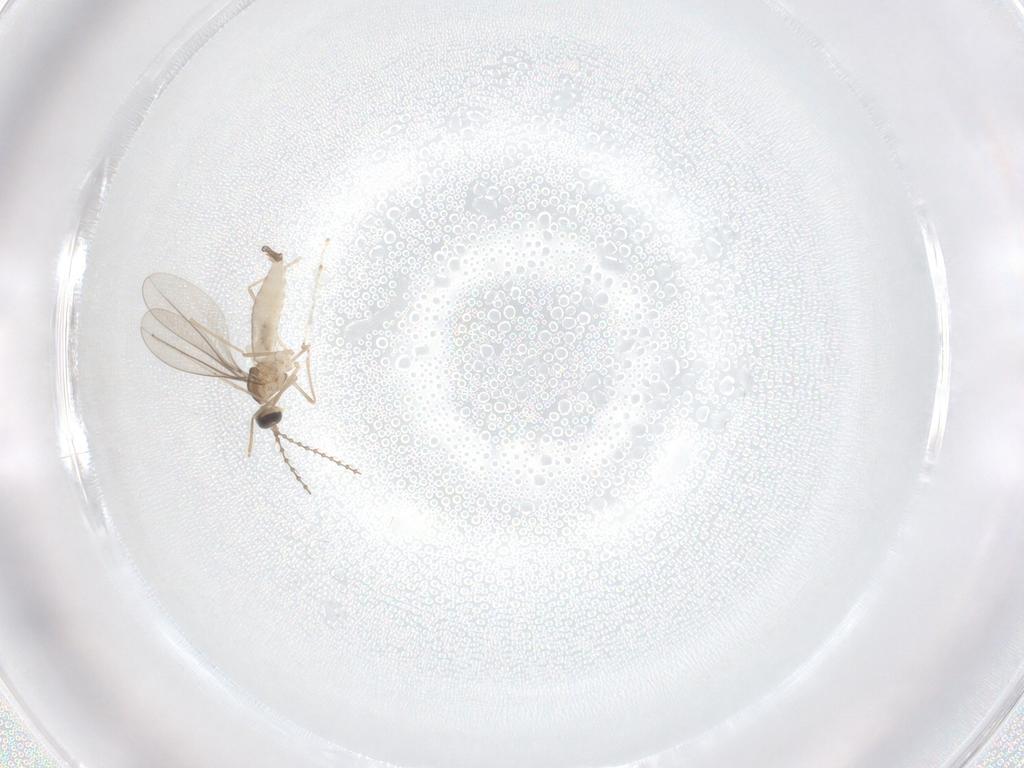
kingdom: Animalia
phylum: Arthropoda
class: Insecta
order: Diptera
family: Cecidomyiidae
